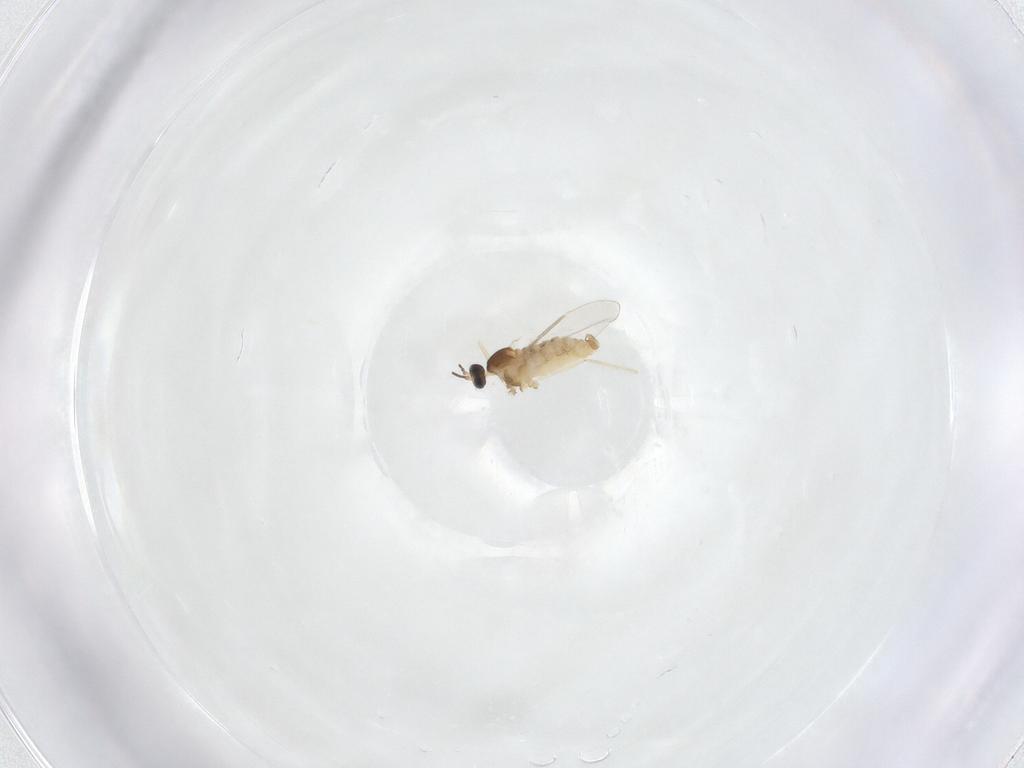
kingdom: Animalia
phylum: Arthropoda
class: Insecta
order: Diptera
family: Cecidomyiidae
